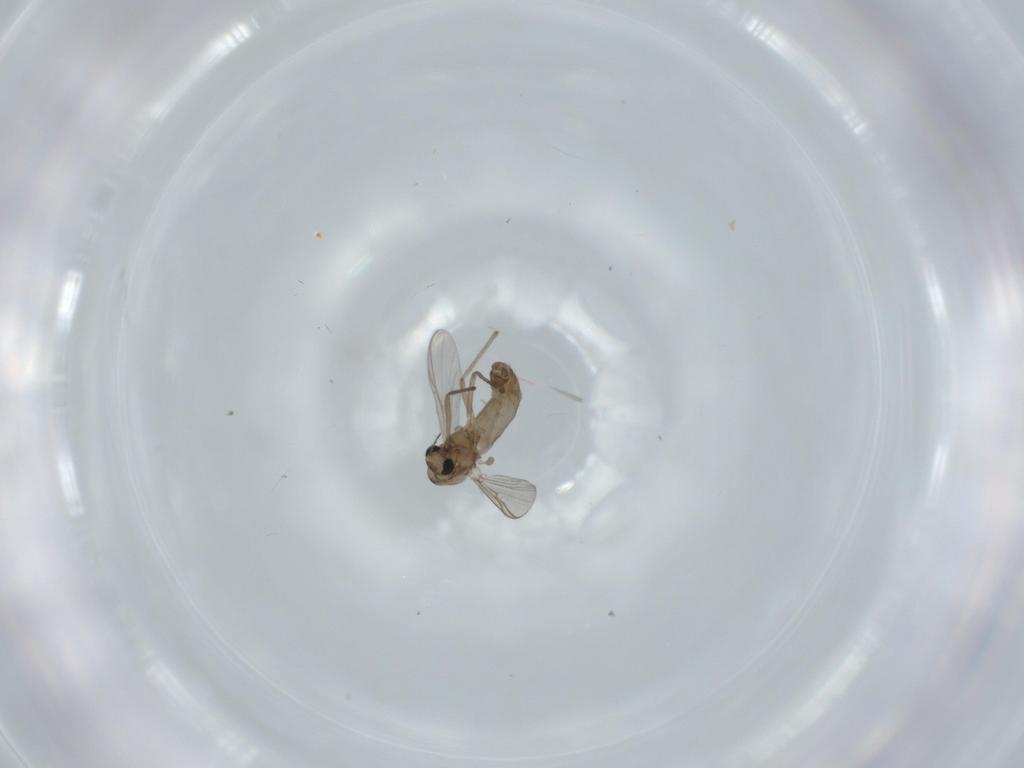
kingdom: Animalia
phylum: Arthropoda
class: Insecta
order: Diptera
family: Chironomidae
